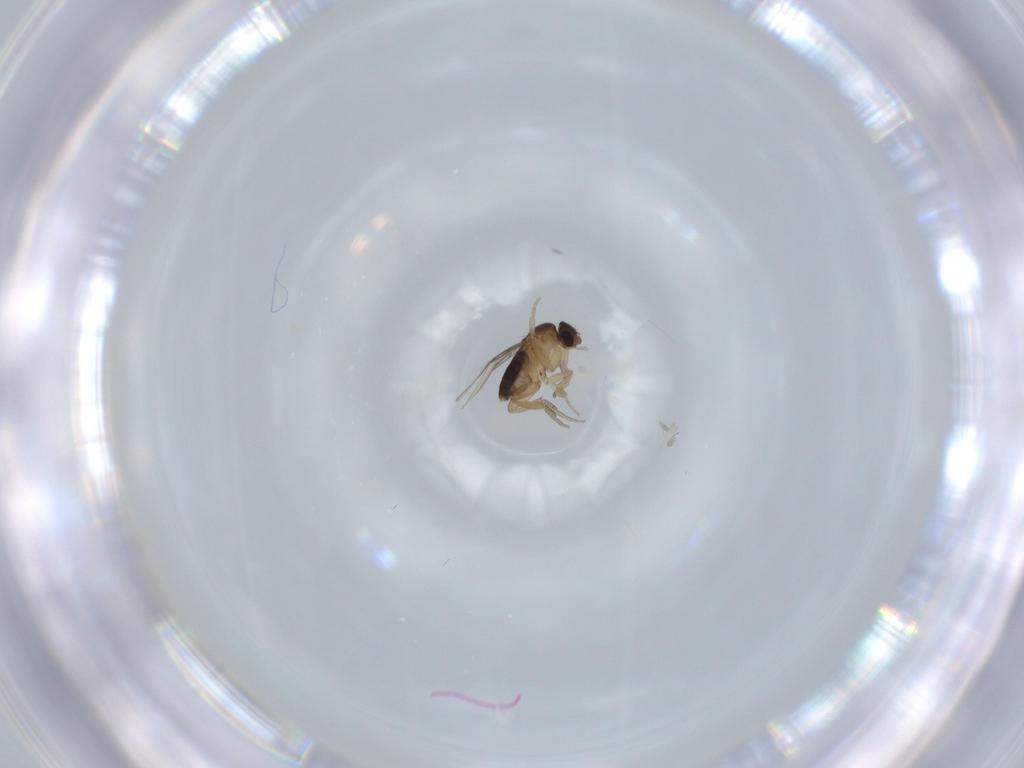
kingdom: Animalia
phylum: Arthropoda
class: Insecta
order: Diptera
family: Phoridae
